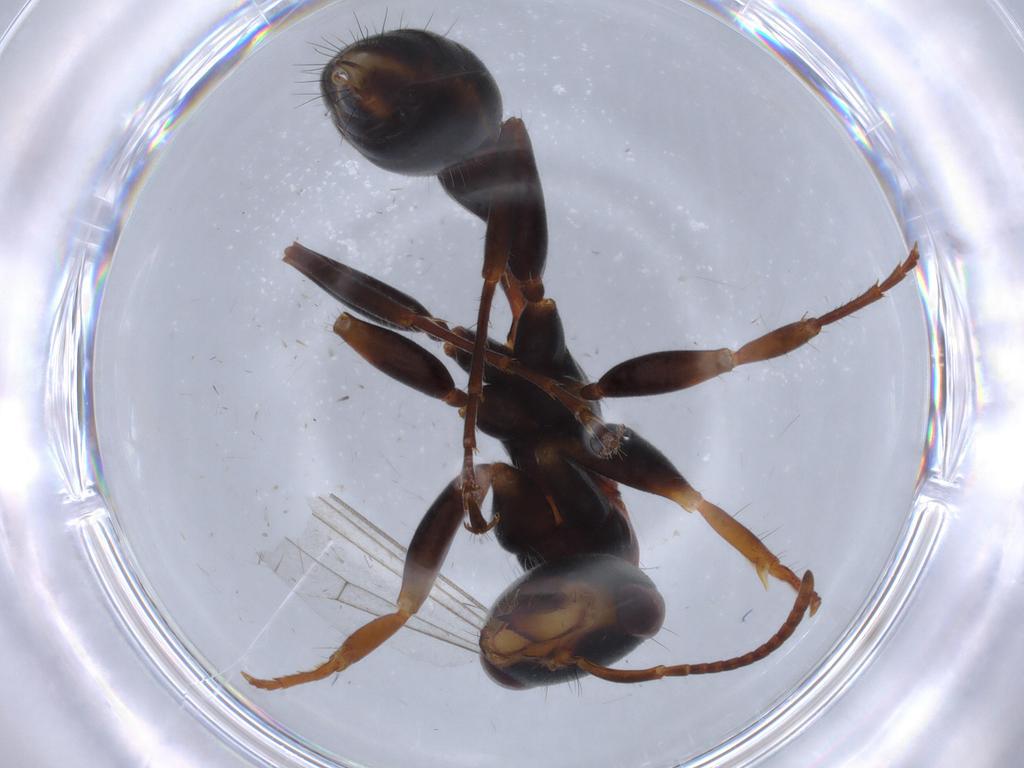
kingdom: Animalia
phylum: Arthropoda
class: Insecta
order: Hymenoptera
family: Formicidae
